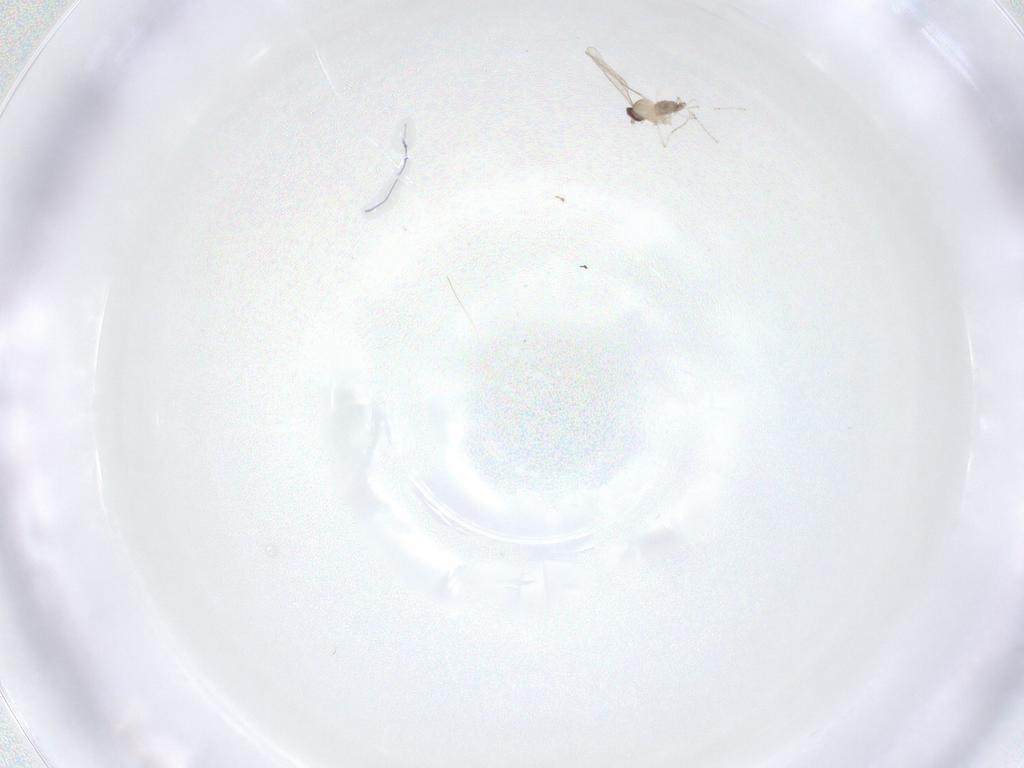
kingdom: Animalia
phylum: Arthropoda
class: Insecta
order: Diptera
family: Cecidomyiidae
